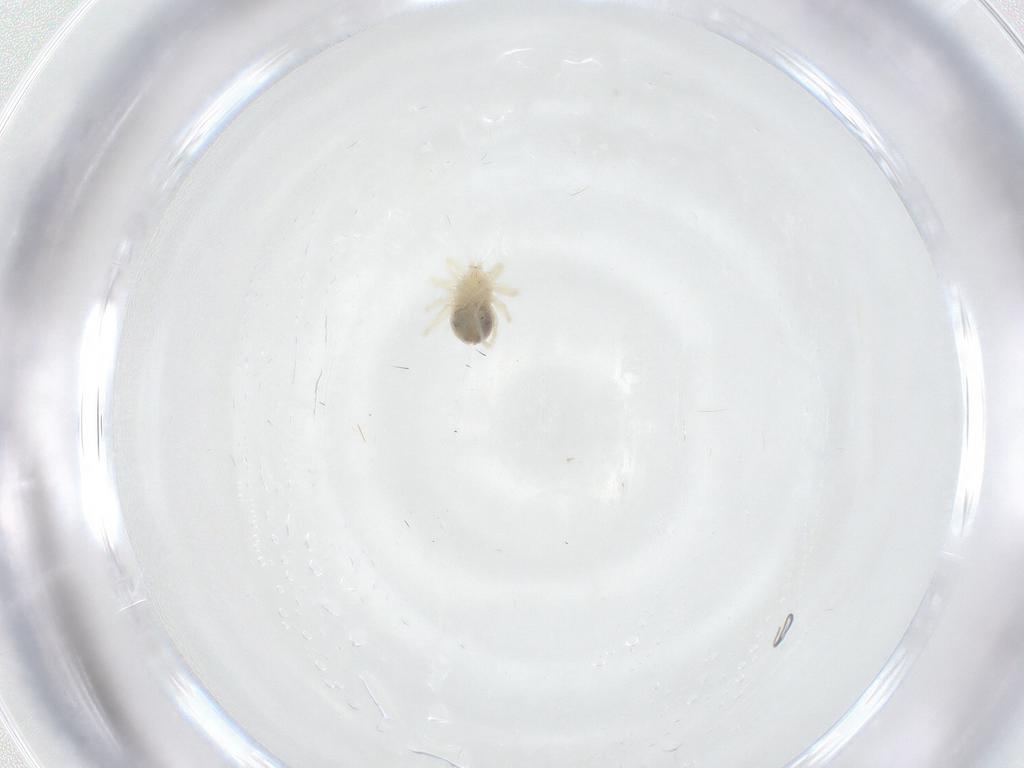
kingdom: Animalia
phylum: Arthropoda
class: Arachnida
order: Trombidiformes
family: Anystidae
